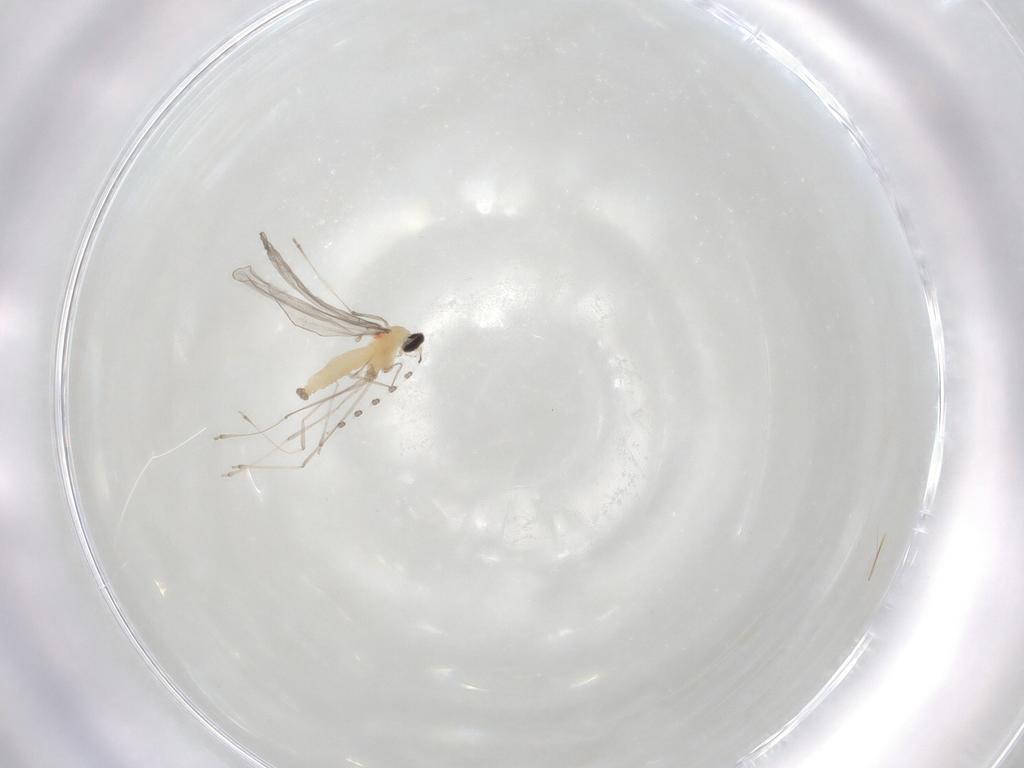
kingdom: Animalia
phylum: Arthropoda
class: Insecta
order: Diptera
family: Cecidomyiidae
